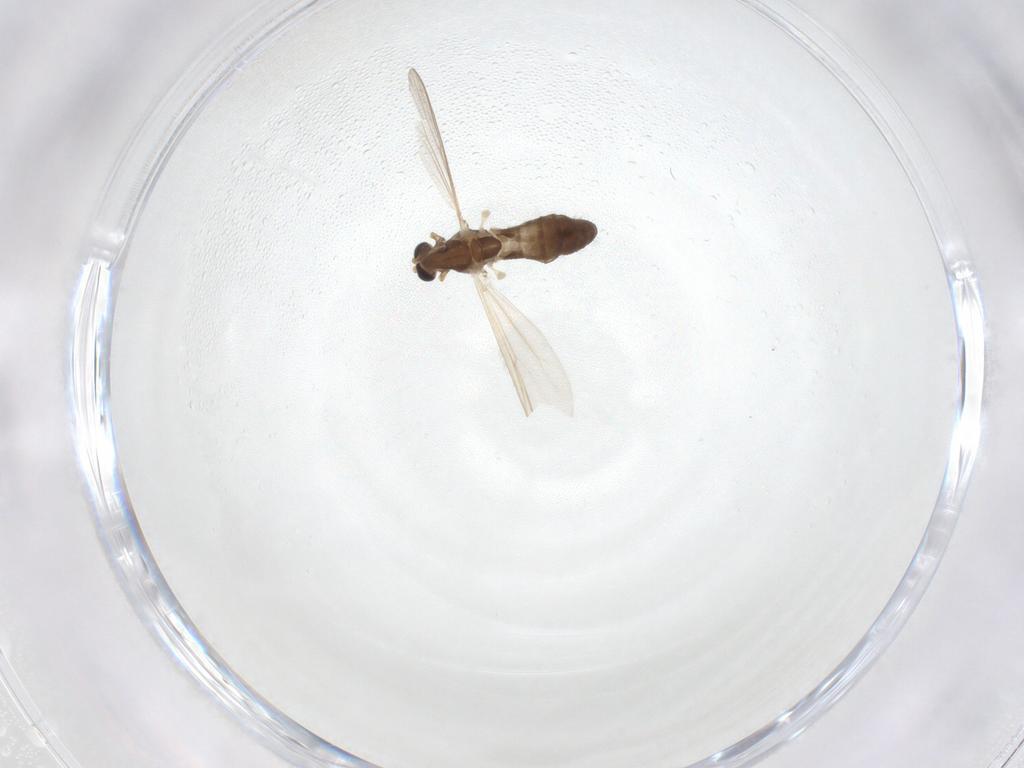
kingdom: Animalia
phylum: Arthropoda
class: Insecta
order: Diptera
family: Chironomidae
